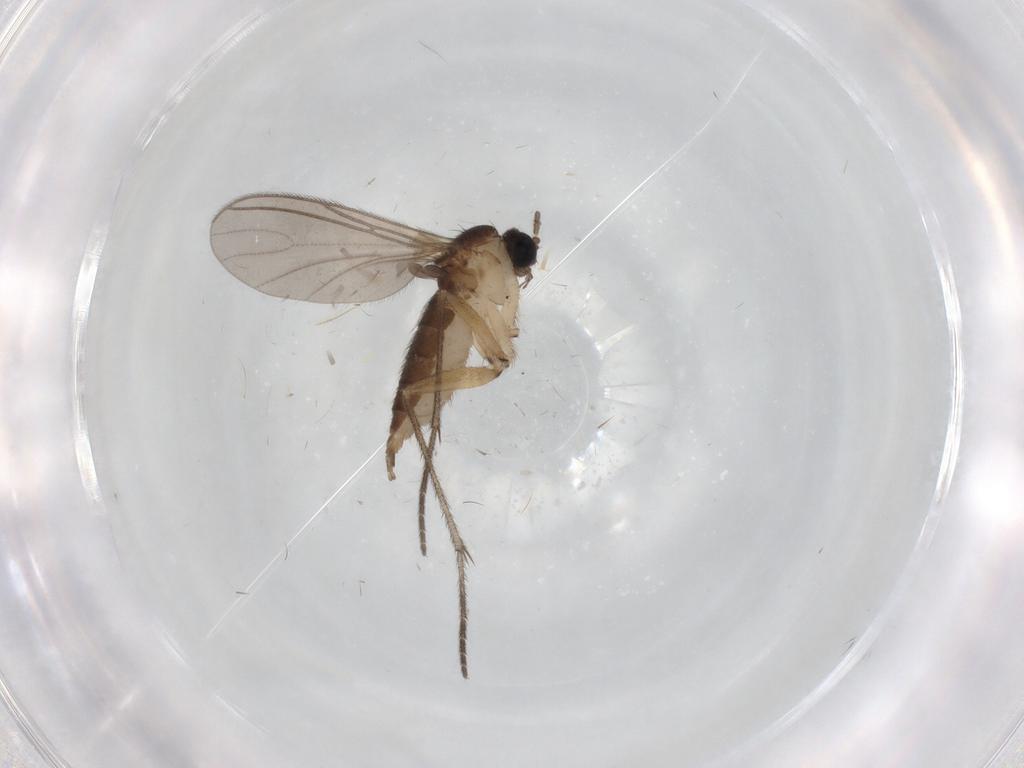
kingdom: Animalia
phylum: Arthropoda
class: Insecta
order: Diptera
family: Sciaridae
